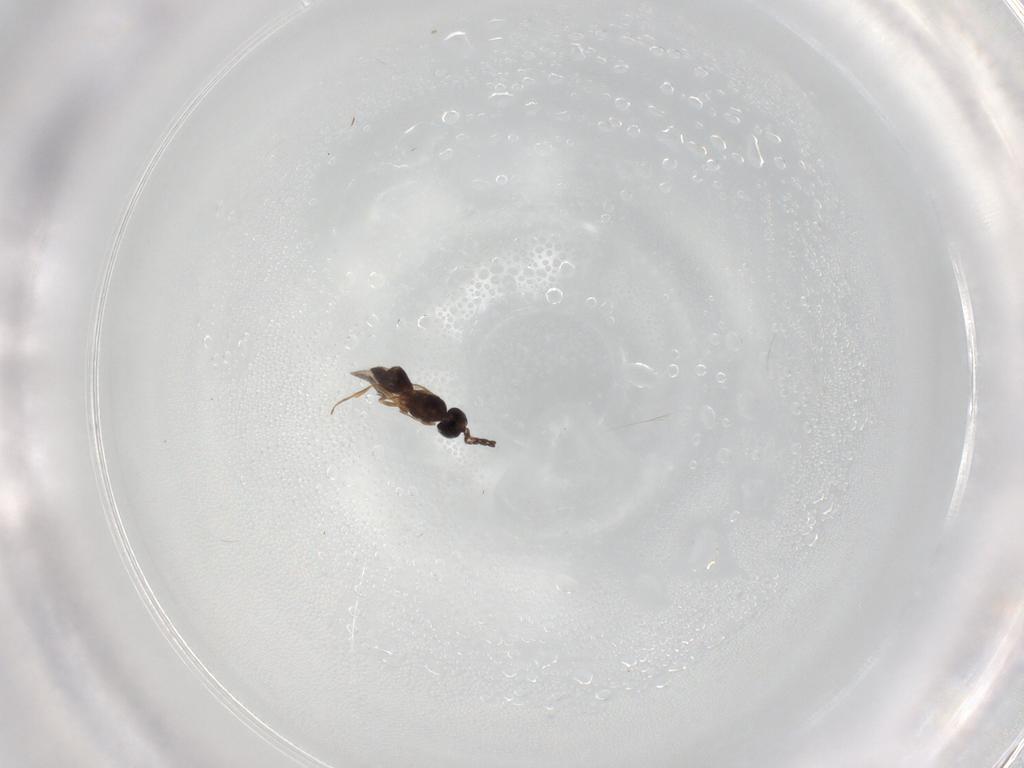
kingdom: Animalia
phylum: Arthropoda
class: Insecta
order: Hymenoptera
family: Scelionidae
